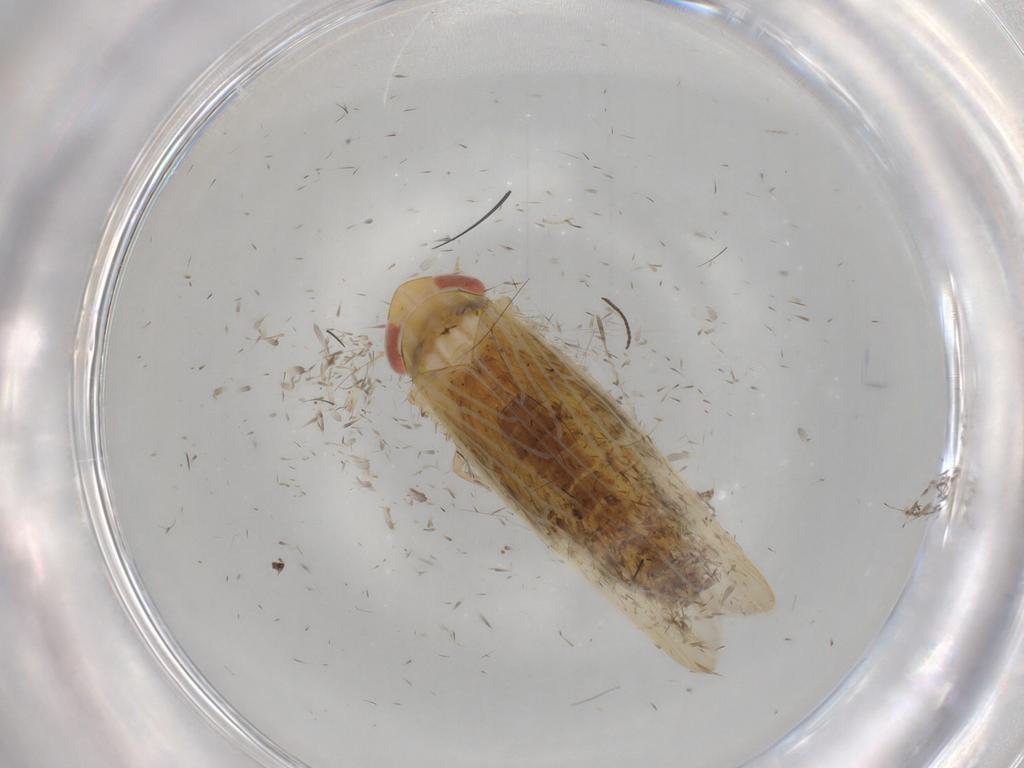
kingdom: Animalia
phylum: Arthropoda
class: Insecta
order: Hemiptera
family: Cicadellidae
